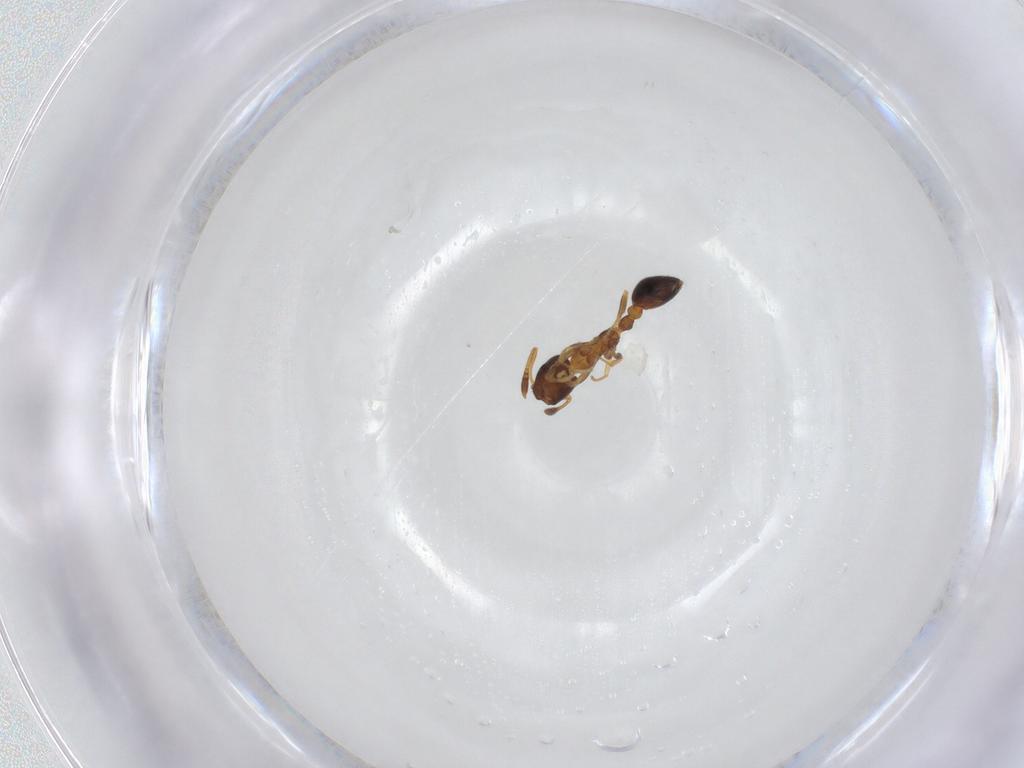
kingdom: Animalia
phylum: Arthropoda
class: Insecta
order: Hymenoptera
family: Formicidae
